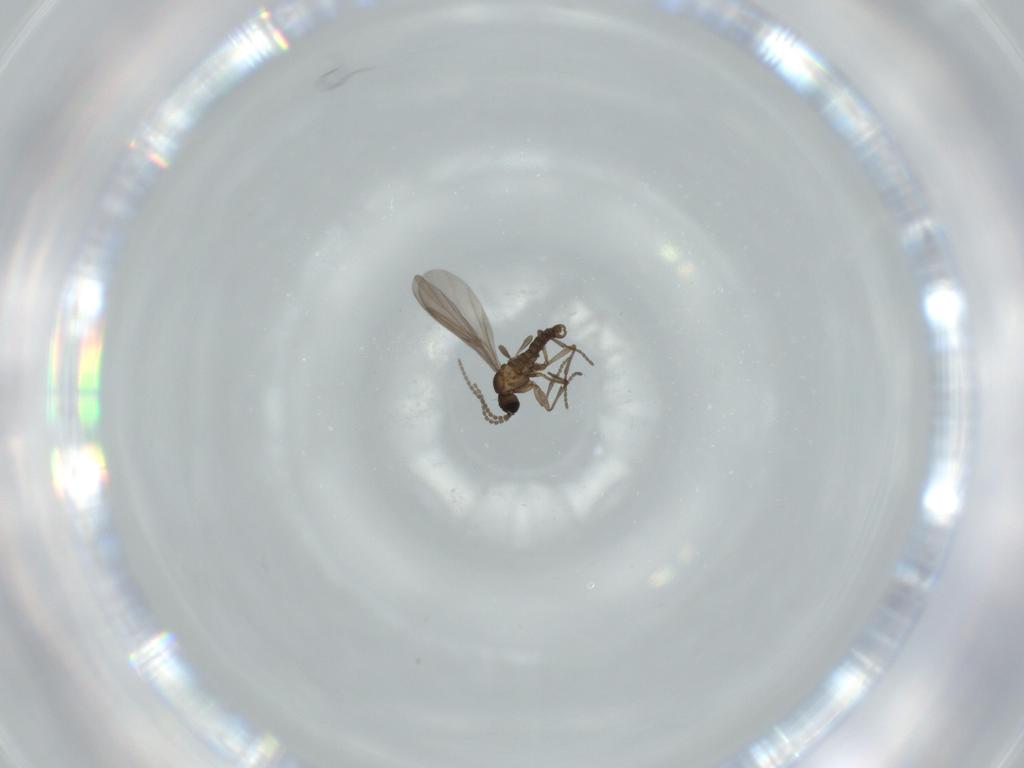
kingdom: Animalia
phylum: Arthropoda
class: Insecta
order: Diptera
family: Phoridae
